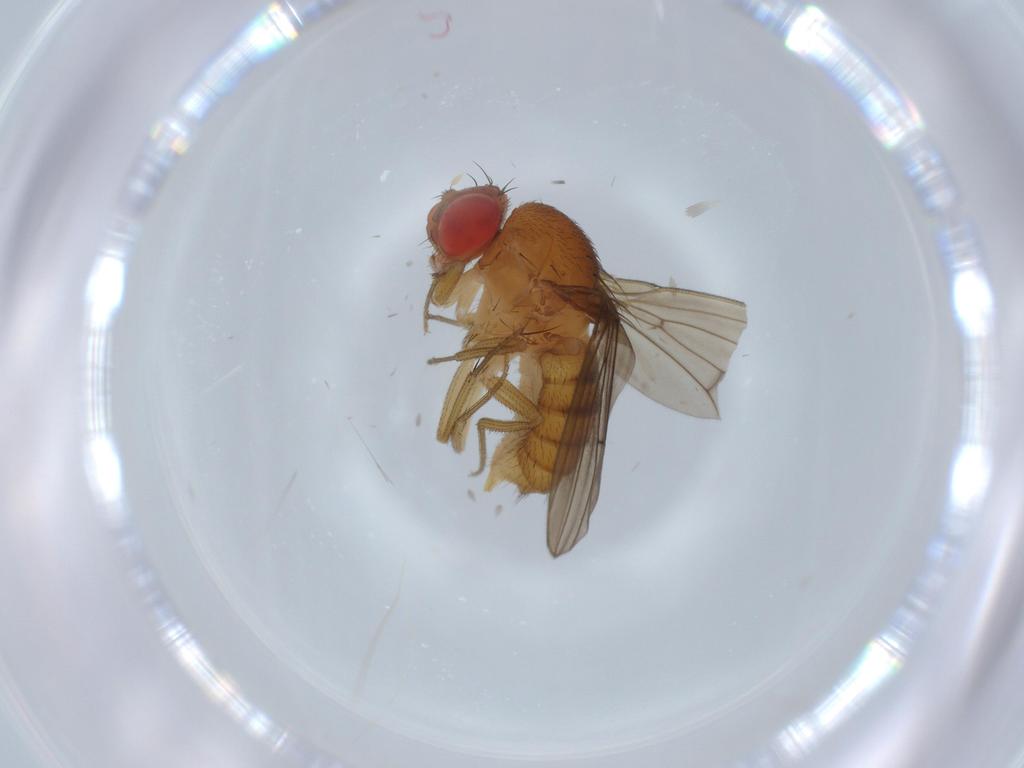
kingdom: Animalia
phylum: Arthropoda
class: Insecta
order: Diptera
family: Drosophilidae
